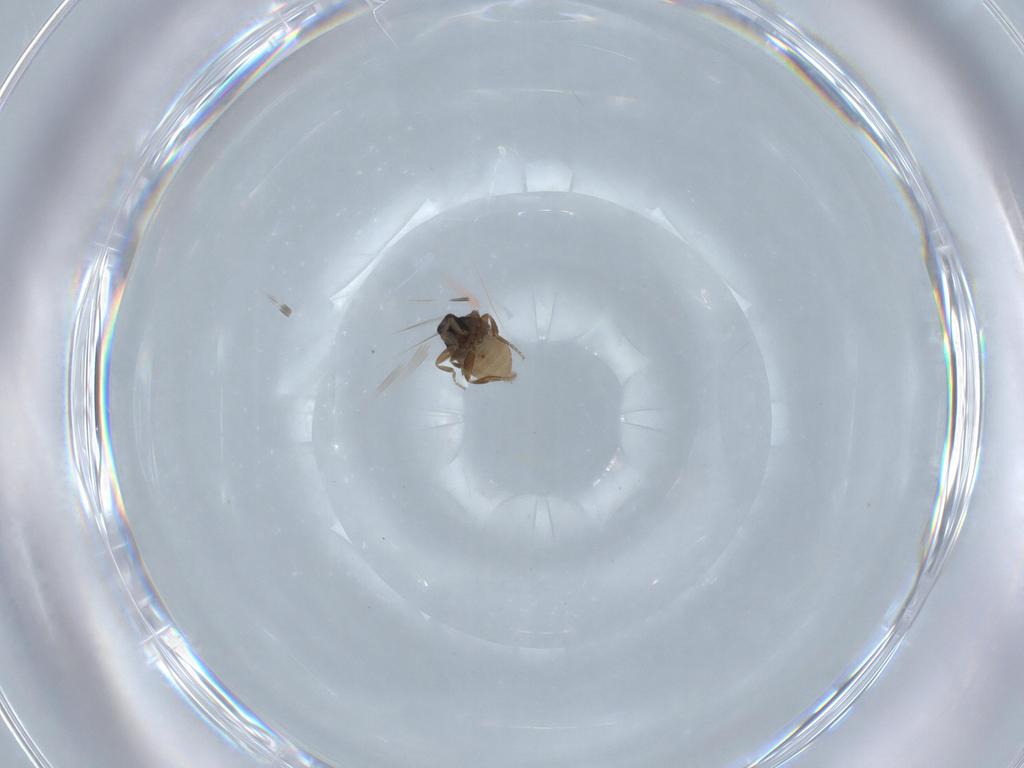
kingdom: Animalia
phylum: Arthropoda
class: Insecta
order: Diptera
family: Sciaridae
